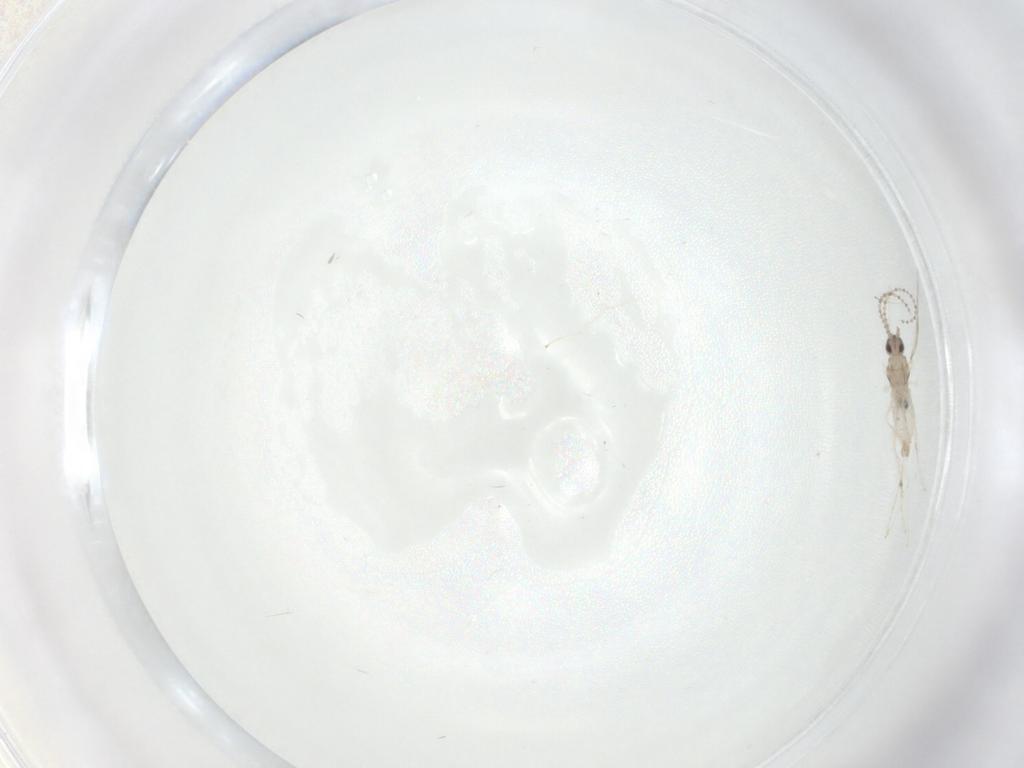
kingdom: Animalia
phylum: Arthropoda
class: Insecta
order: Diptera
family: Cecidomyiidae
